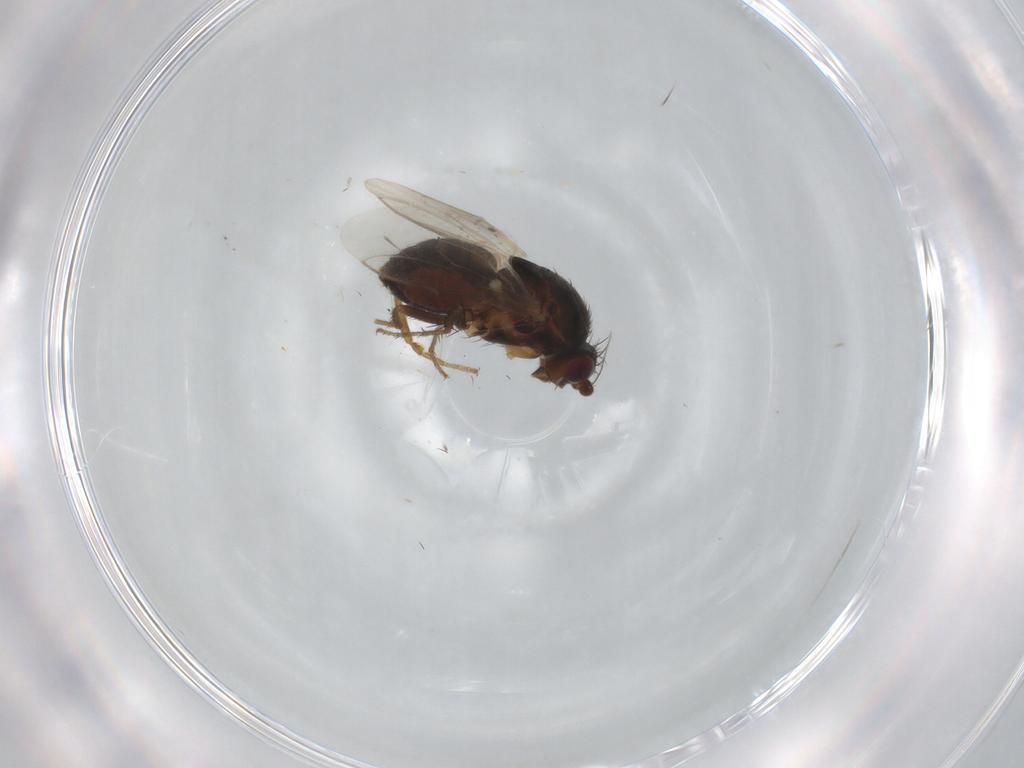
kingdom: Animalia
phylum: Arthropoda
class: Insecta
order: Diptera
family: Sphaeroceridae
